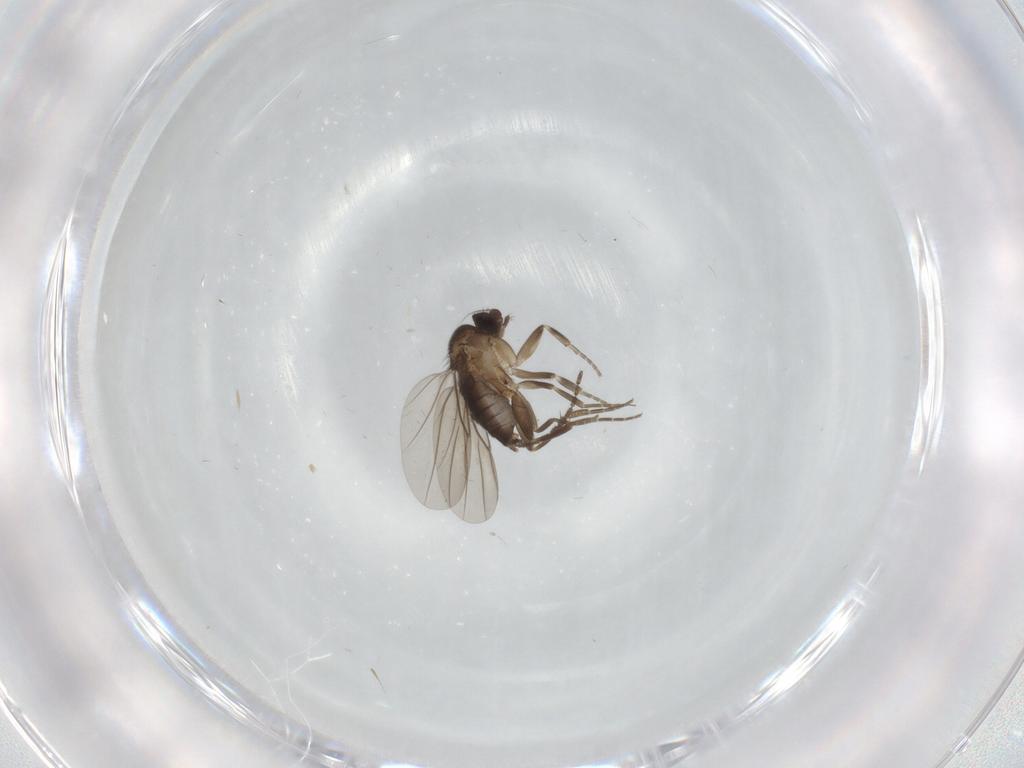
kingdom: Animalia
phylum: Arthropoda
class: Insecta
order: Diptera
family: Sciaridae
